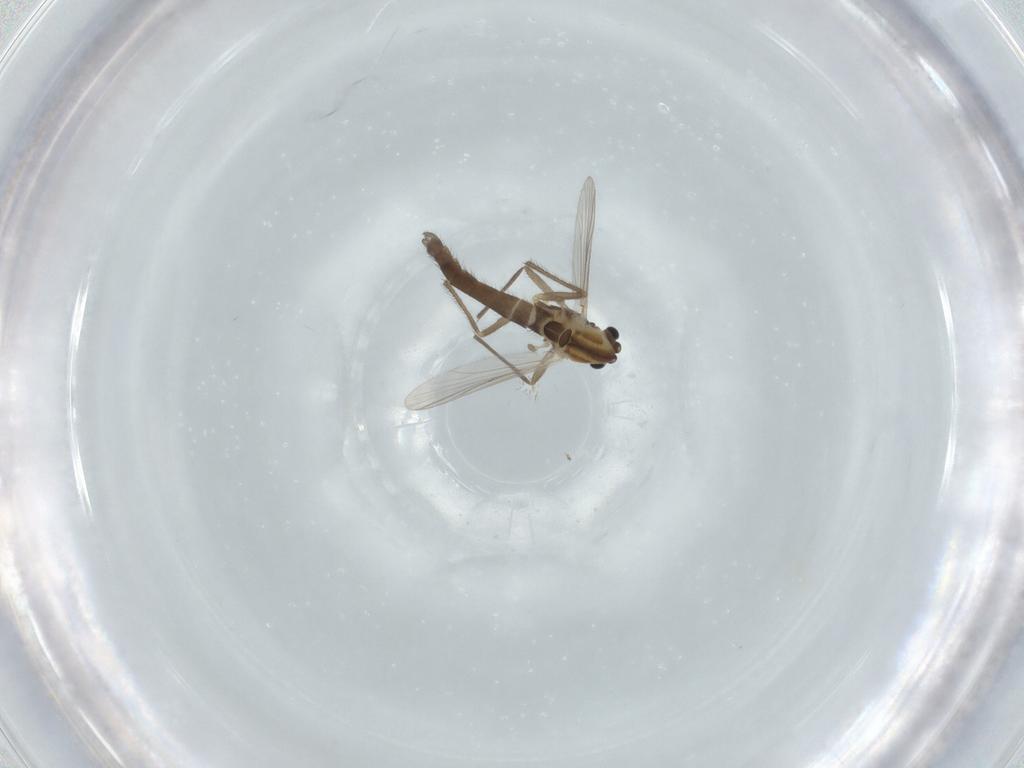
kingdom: Animalia
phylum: Arthropoda
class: Insecta
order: Diptera
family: Chironomidae
